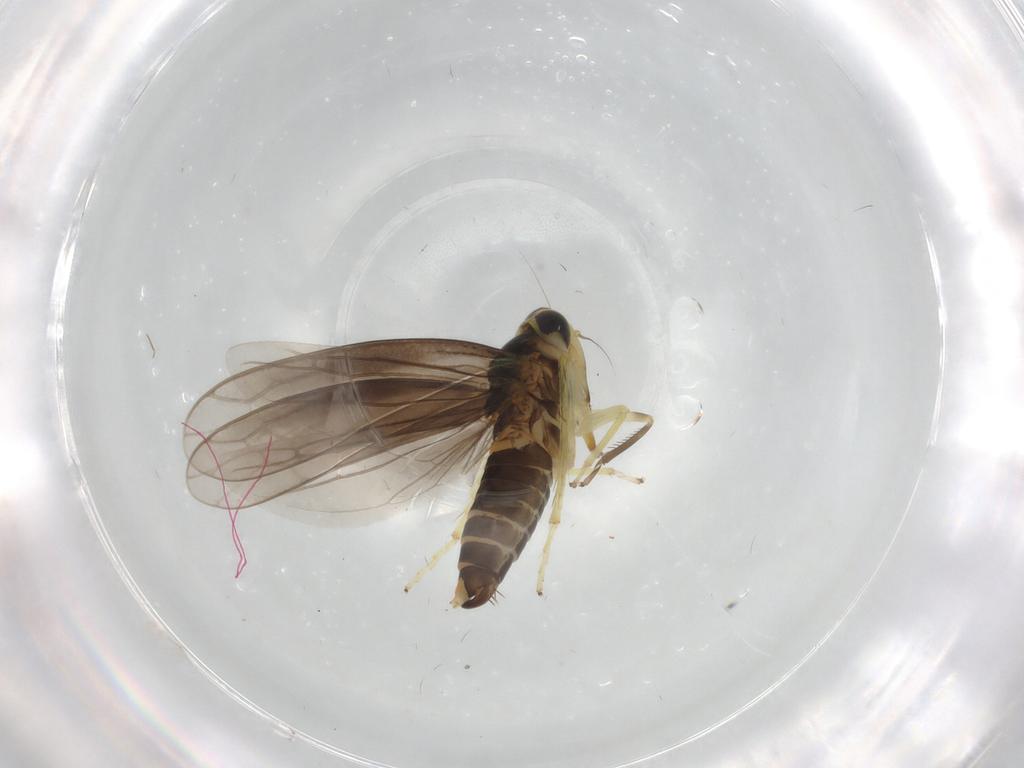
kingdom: Animalia
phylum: Arthropoda
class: Insecta
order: Hemiptera
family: Cicadellidae
